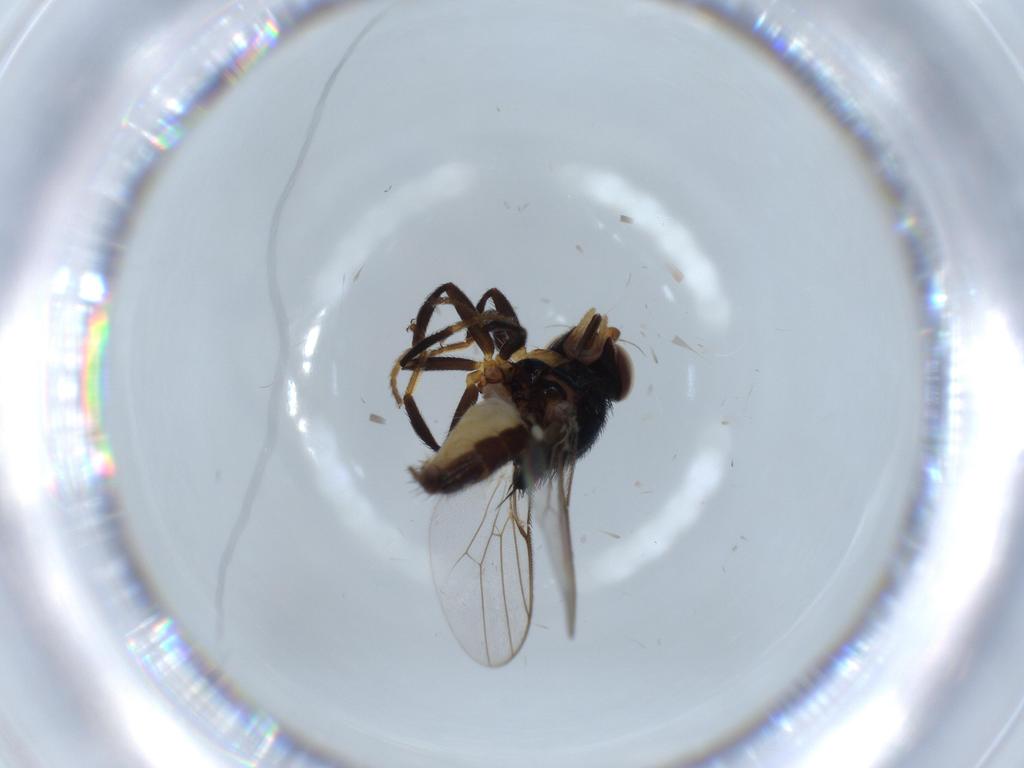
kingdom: Animalia
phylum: Arthropoda
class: Insecta
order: Diptera
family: Chloropidae
